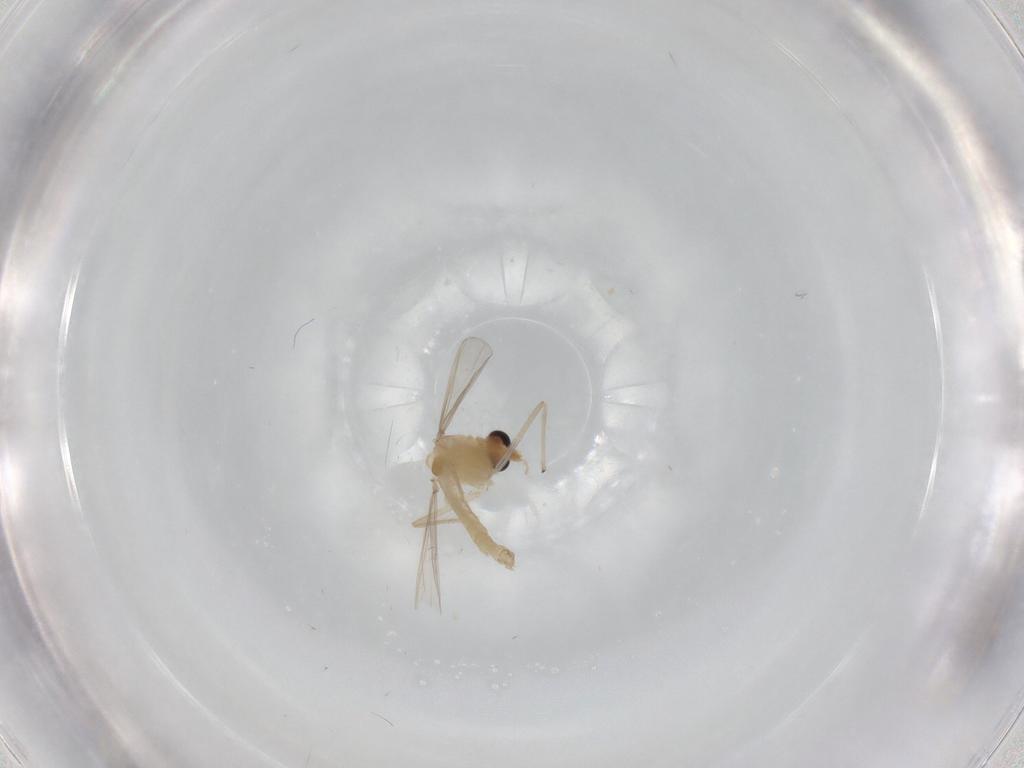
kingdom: Animalia
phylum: Arthropoda
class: Insecta
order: Diptera
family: Chironomidae
